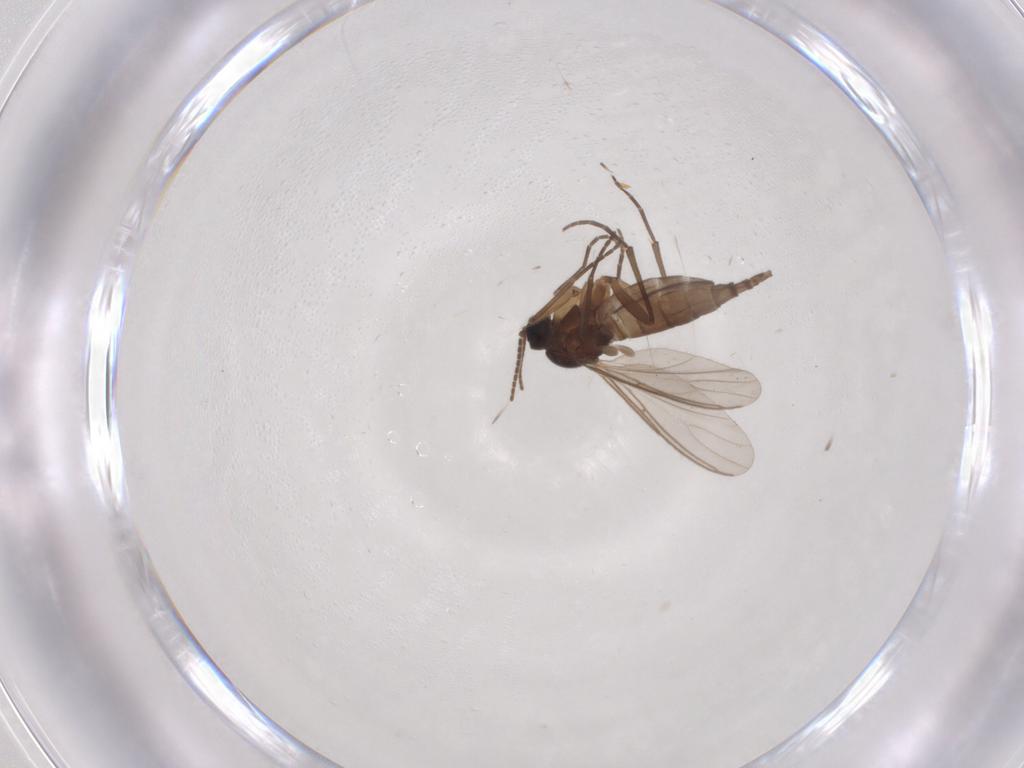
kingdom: Animalia
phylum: Arthropoda
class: Insecta
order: Diptera
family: Sciaridae
